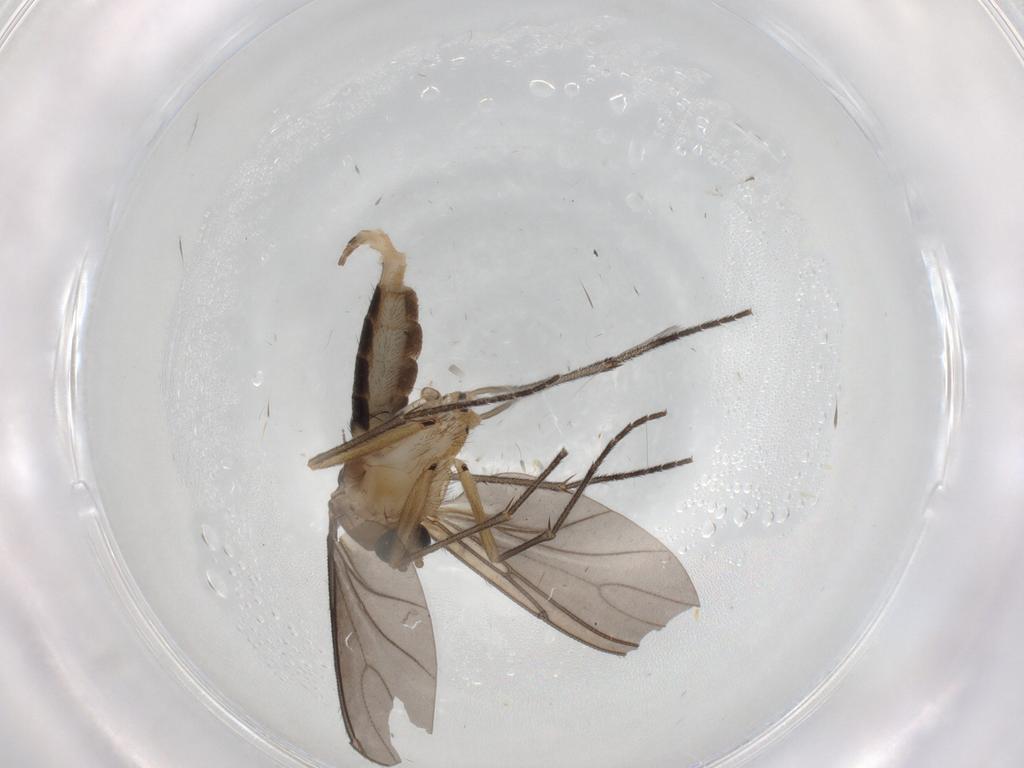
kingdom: Animalia
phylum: Arthropoda
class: Insecta
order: Diptera
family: Sciaridae
